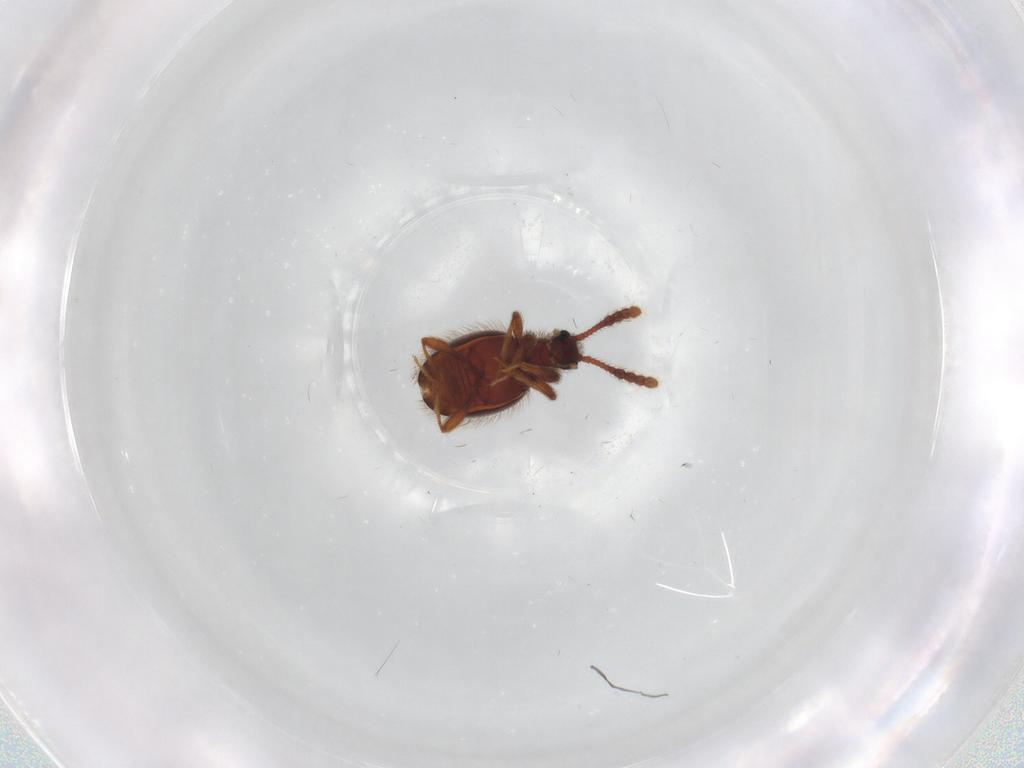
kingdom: Animalia
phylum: Arthropoda
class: Insecta
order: Coleoptera
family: Staphylinidae
